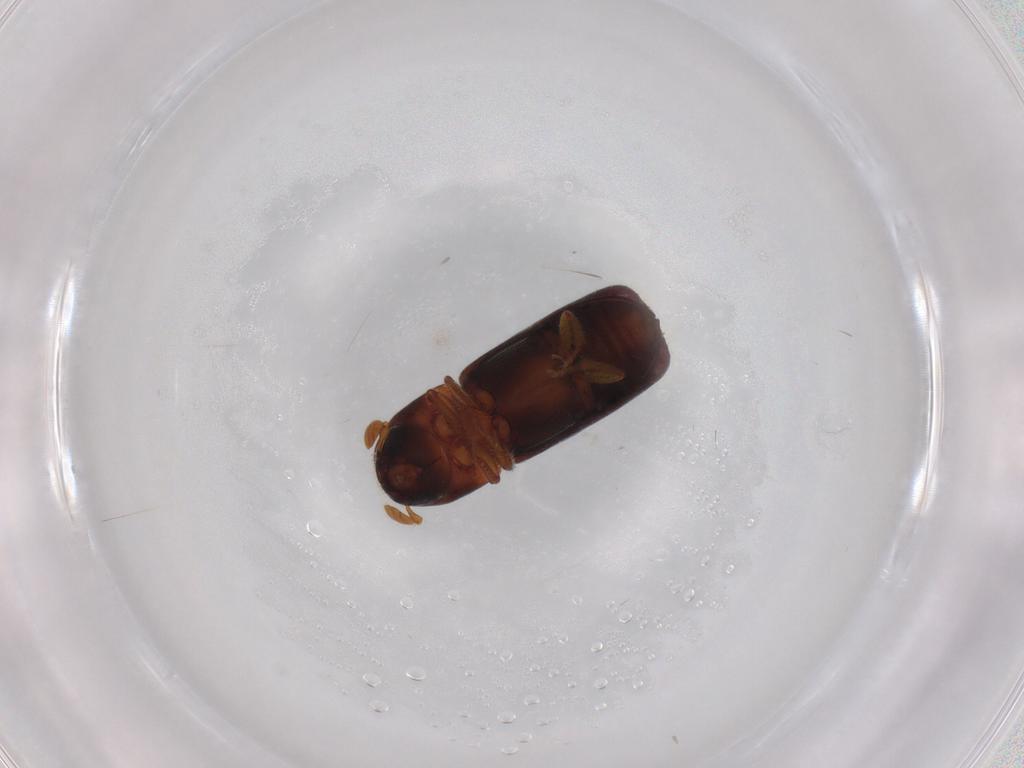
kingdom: Animalia
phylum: Arthropoda
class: Insecta
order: Coleoptera
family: Curculionidae
